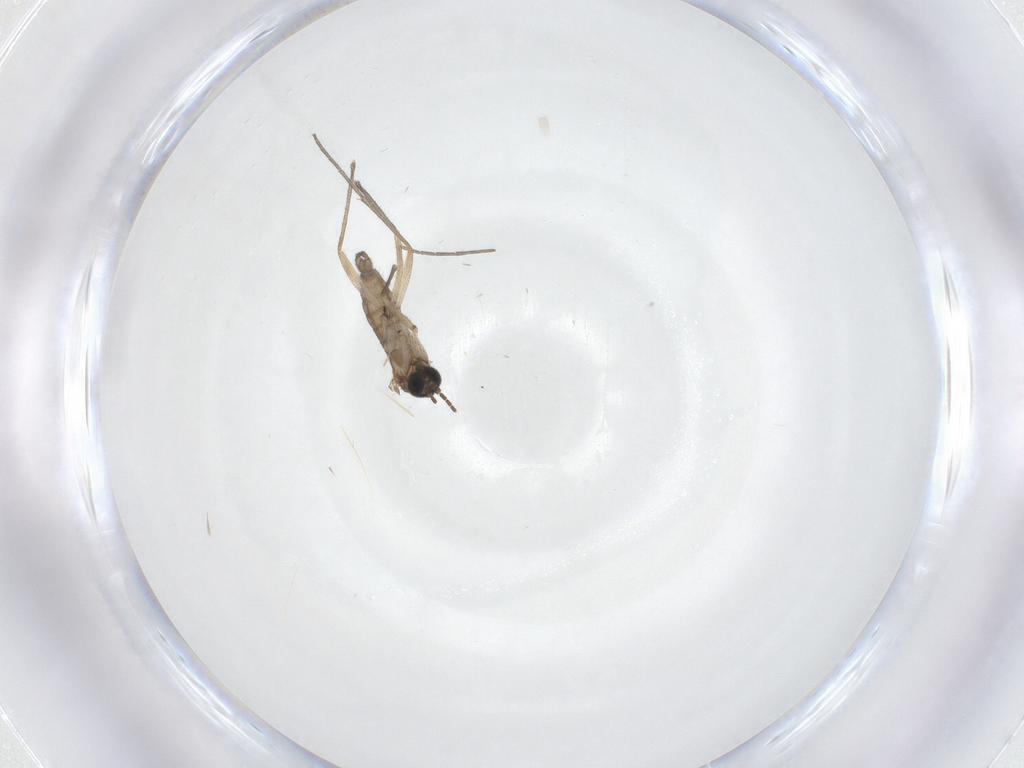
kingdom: Animalia
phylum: Arthropoda
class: Insecta
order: Diptera
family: Sciaridae
